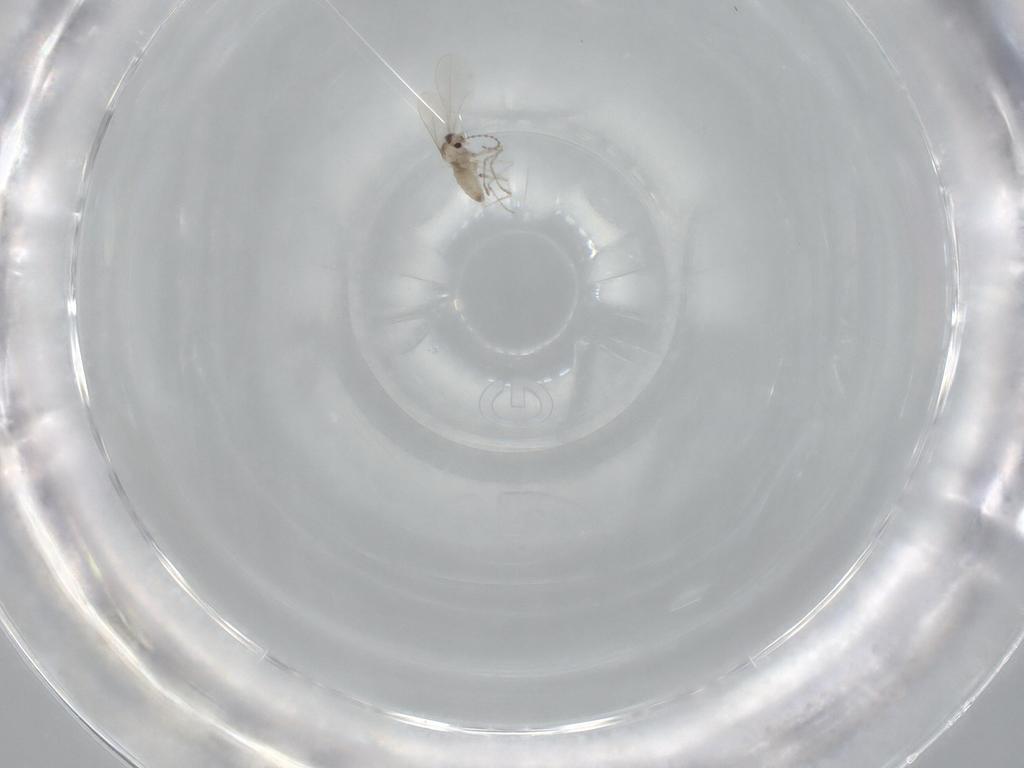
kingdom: Animalia
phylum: Arthropoda
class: Insecta
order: Diptera
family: Cecidomyiidae
